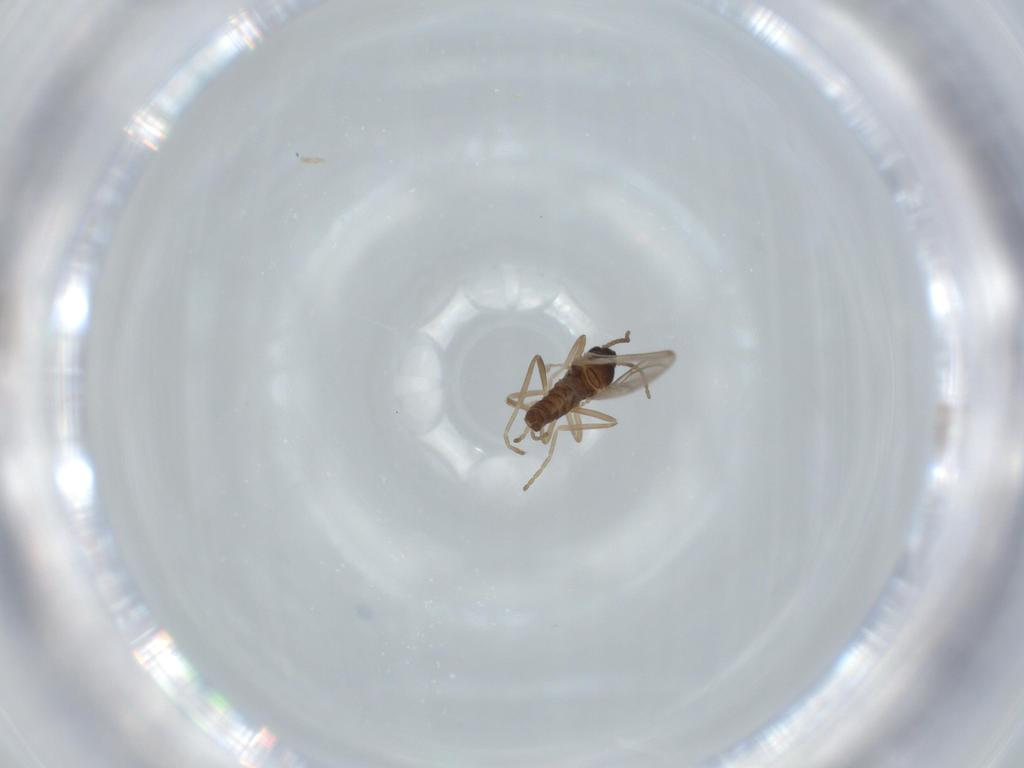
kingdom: Animalia
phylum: Arthropoda
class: Insecta
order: Diptera
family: Cecidomyiidae
